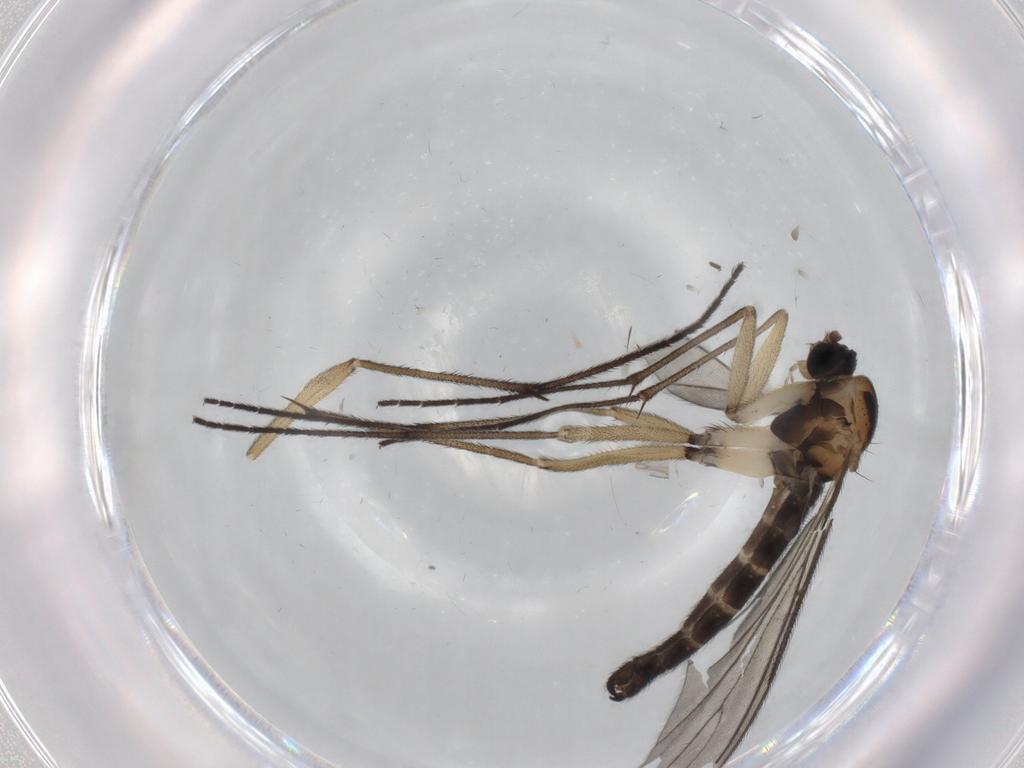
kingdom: Animalia
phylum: Arthropoda
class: Insecta
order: Diptera
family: Sciaridae
